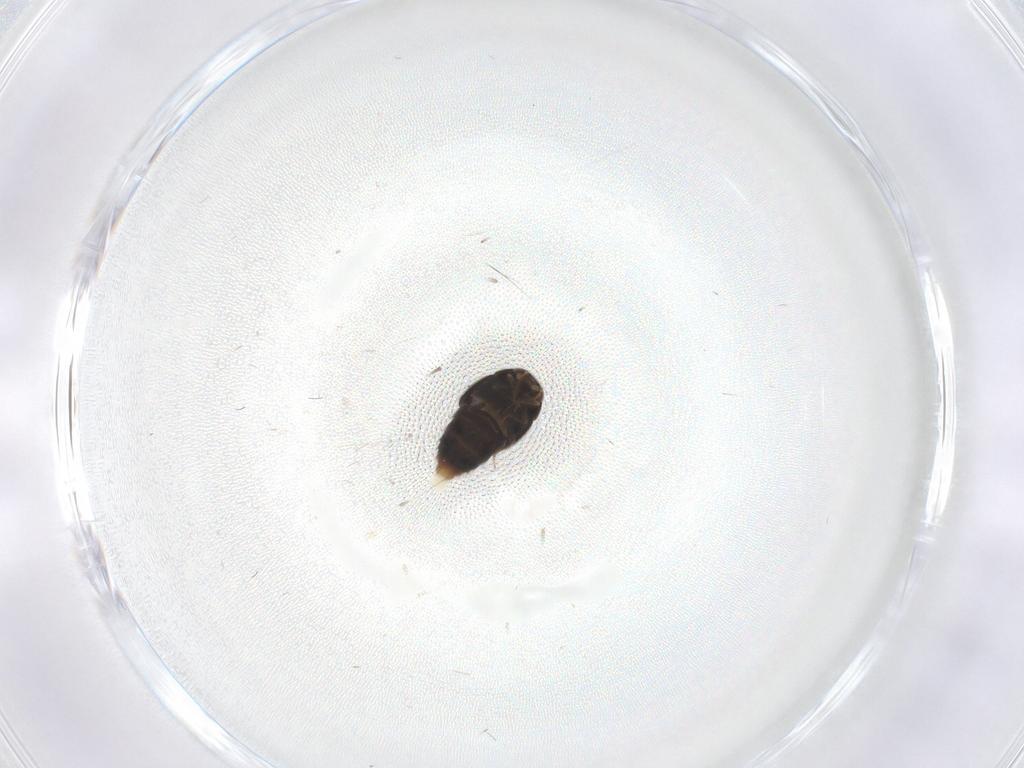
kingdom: Animalia
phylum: Arthropoda
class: Insecta
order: Coleoptera
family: Staphylinidae
